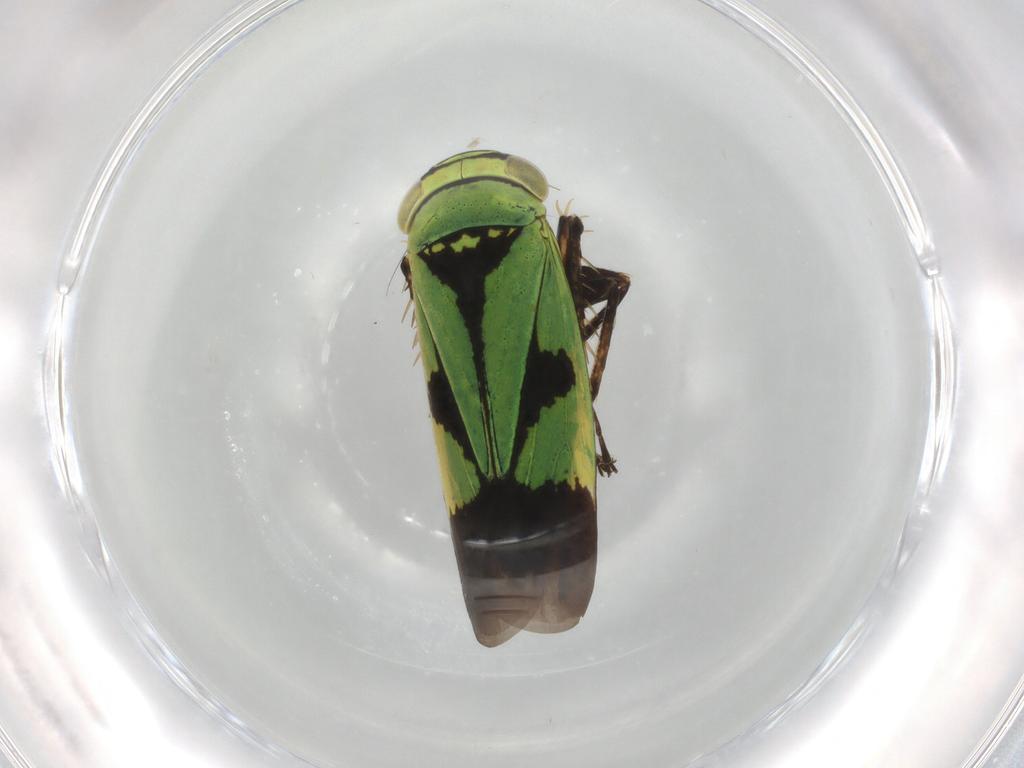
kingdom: Animalia
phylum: Arthropoda
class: Insecta
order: Hemiptera
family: Cicadellidae
